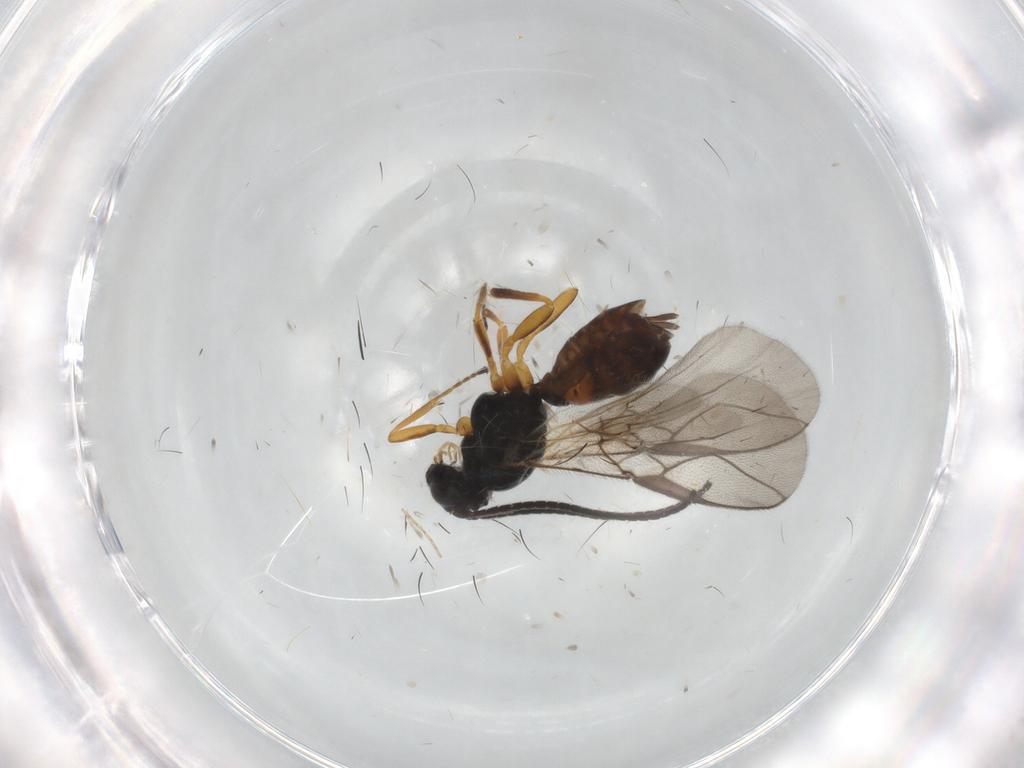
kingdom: Animalia
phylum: Arthropoda
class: Insecta
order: Hymenoptera
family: Braconidae
